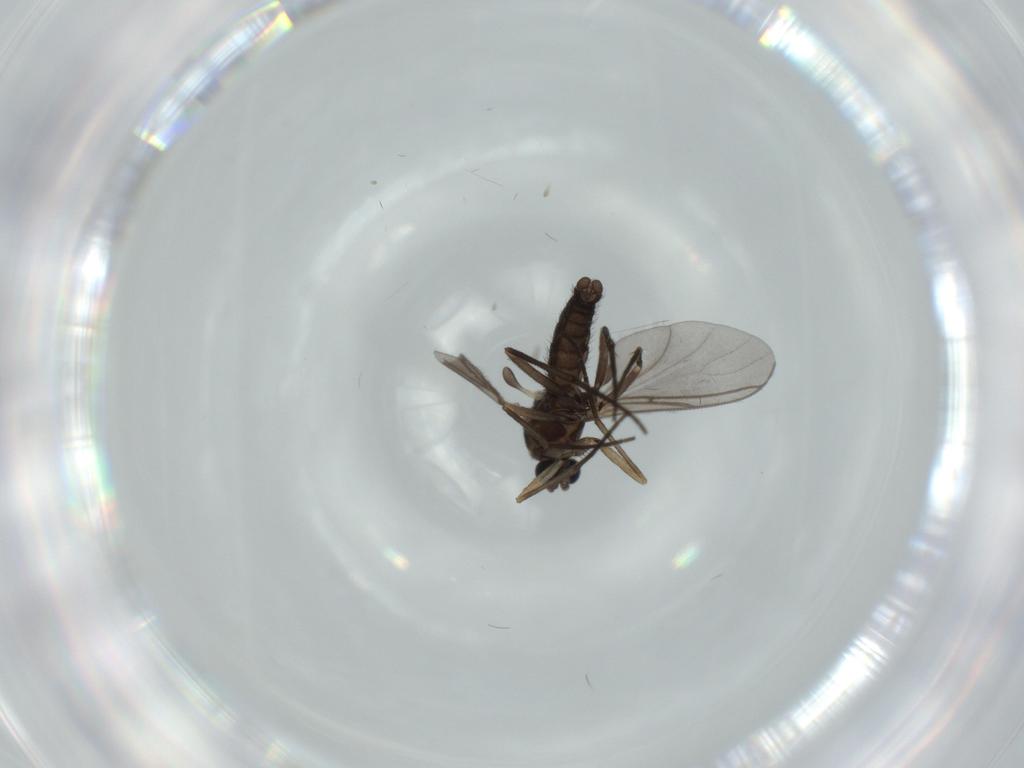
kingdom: Animalia
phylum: Arthropoda
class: Insecta
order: Diptera
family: Sciaridae
